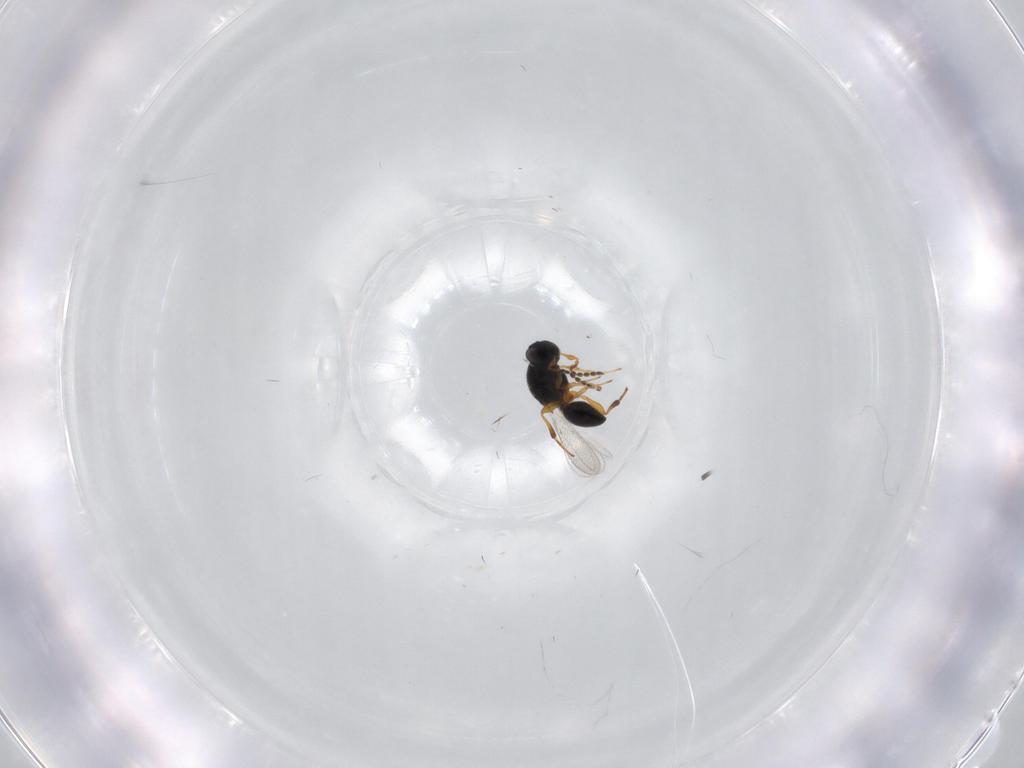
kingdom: Animalia
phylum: Arthropoda
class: Insecta
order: Hymenoptera
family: Platygastridae
